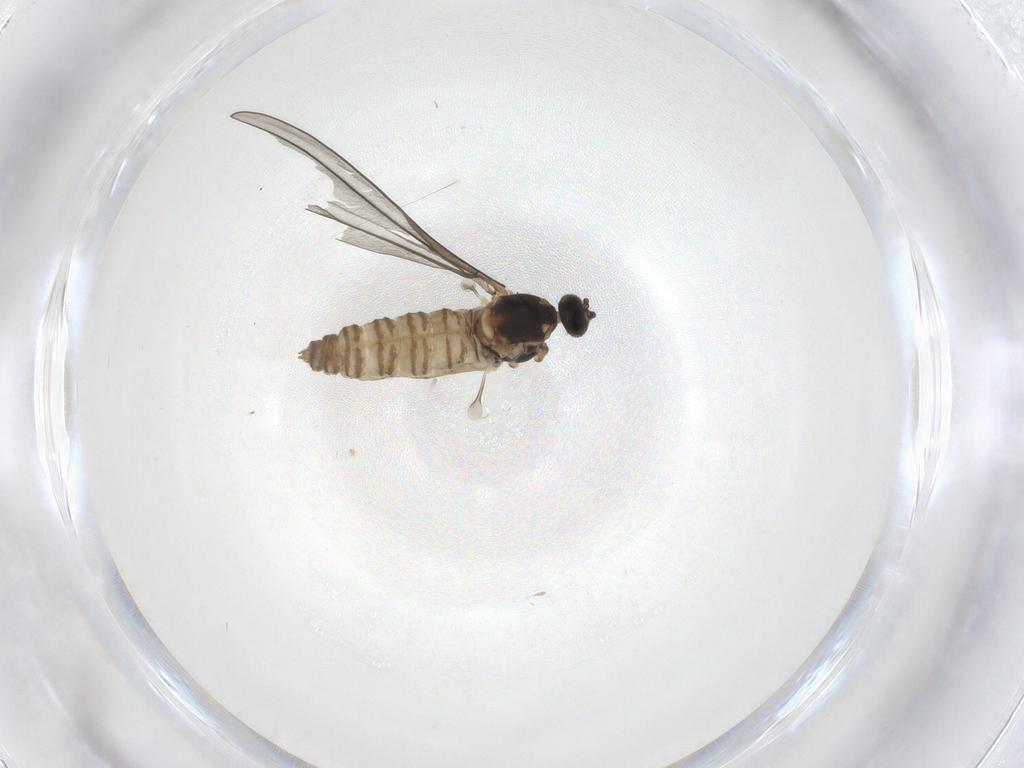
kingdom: Animalia
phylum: Arthropoda
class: Insecta
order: Diptera
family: Cecidomyiidae
